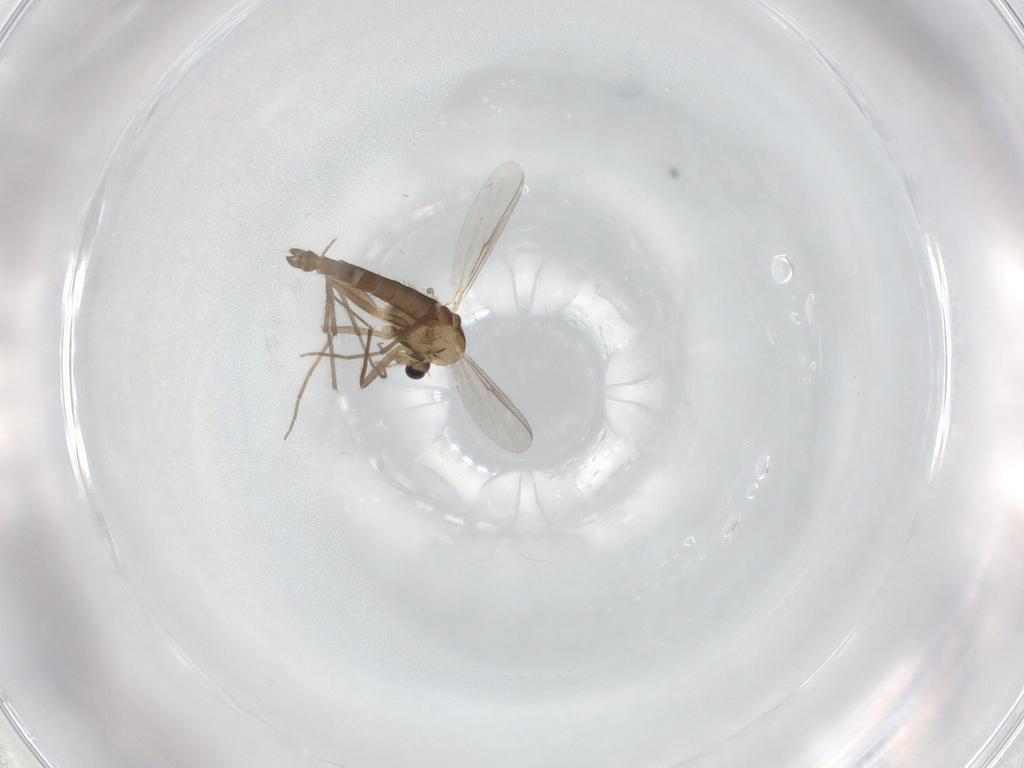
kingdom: Animalia
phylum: Arthropoda
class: Insecta
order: Diptera
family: Chironomidae
